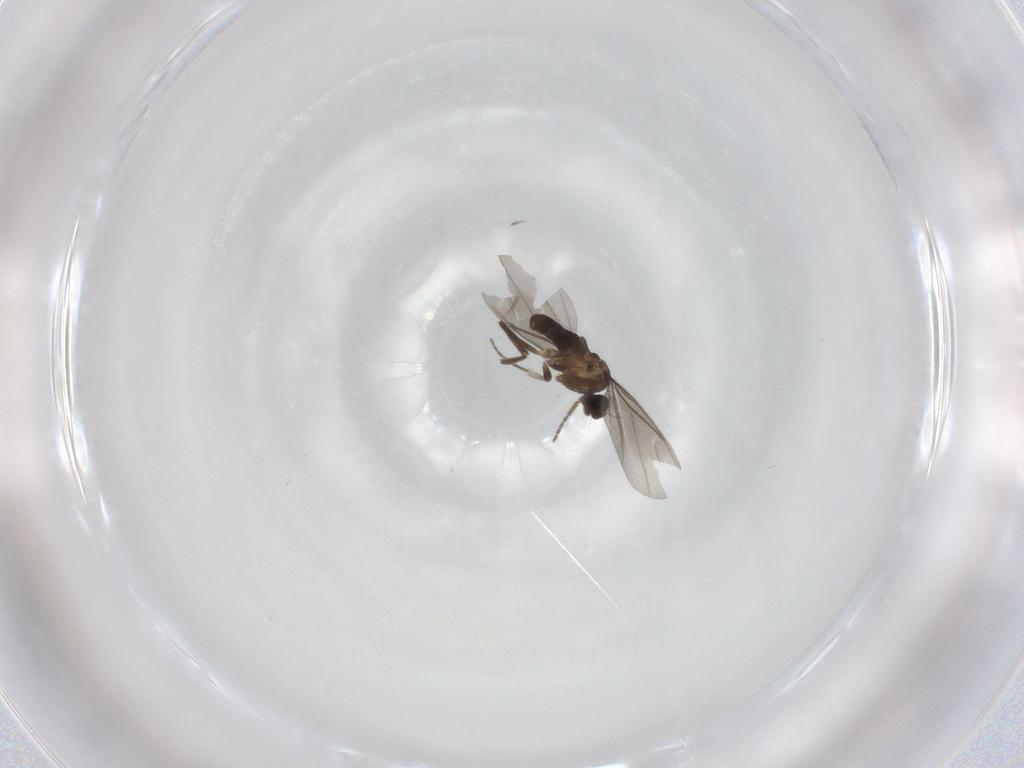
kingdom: Animalia
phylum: Arthropoda
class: Insecta
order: Diptera
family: Phoridae
